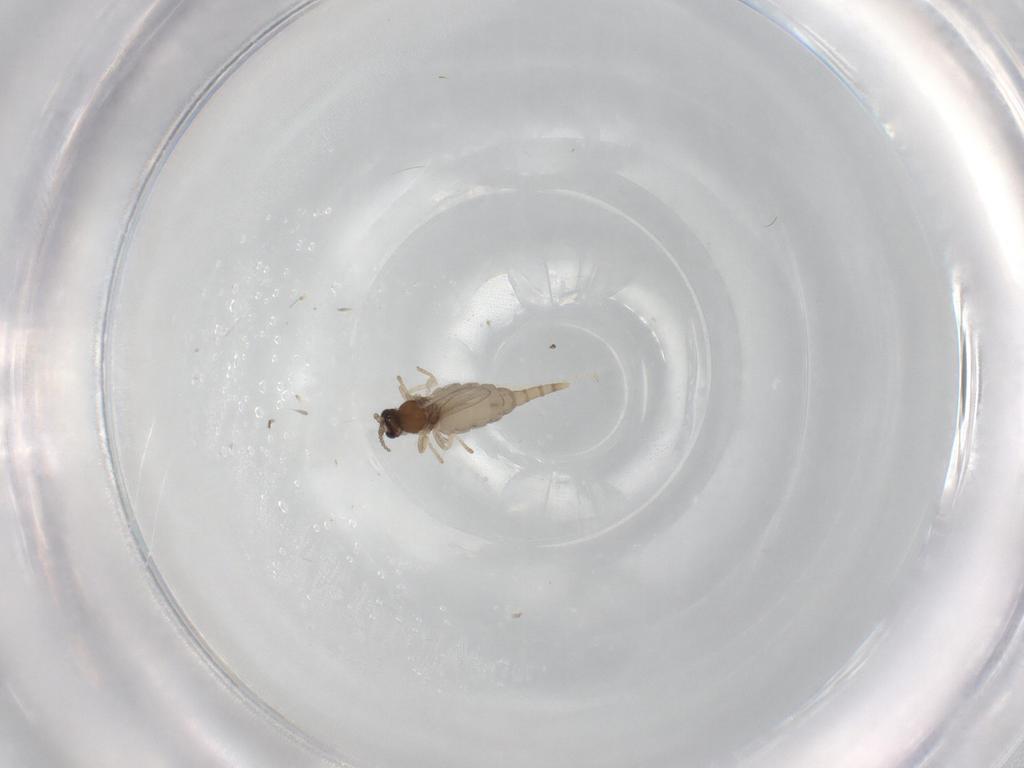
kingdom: Animalia
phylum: Arthropoda
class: Insecta
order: Diptera
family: Cecidomyiidae
